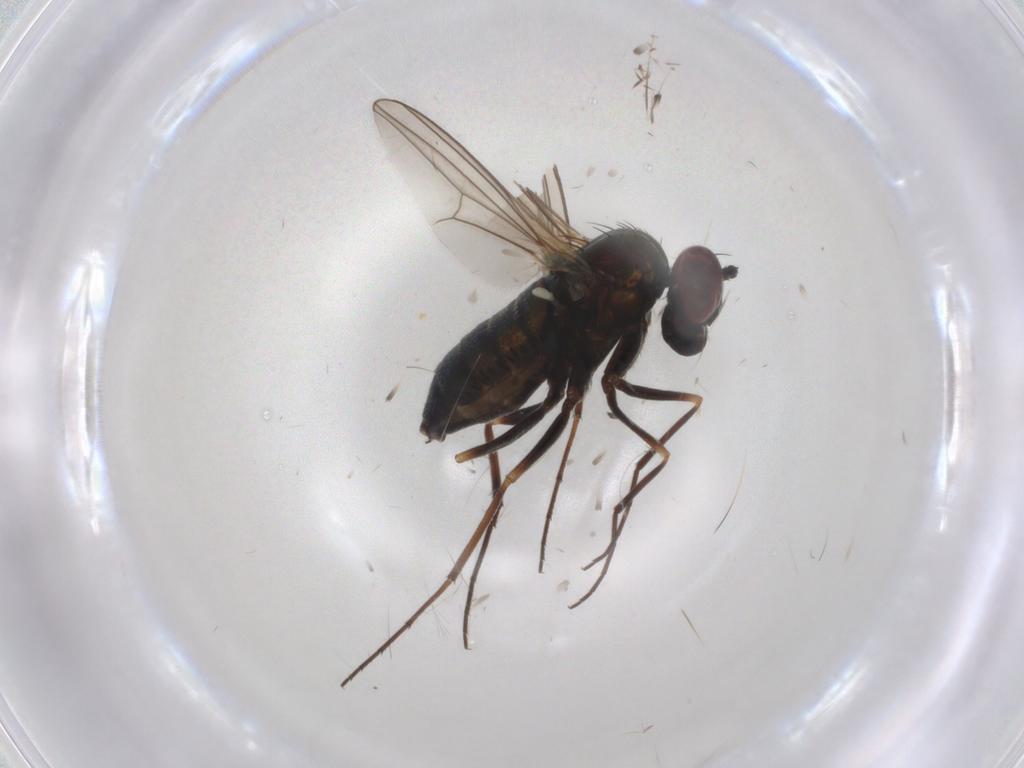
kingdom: Animalia
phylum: Arthropoda
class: Insecta
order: Diptera
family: Dolichopodidae
